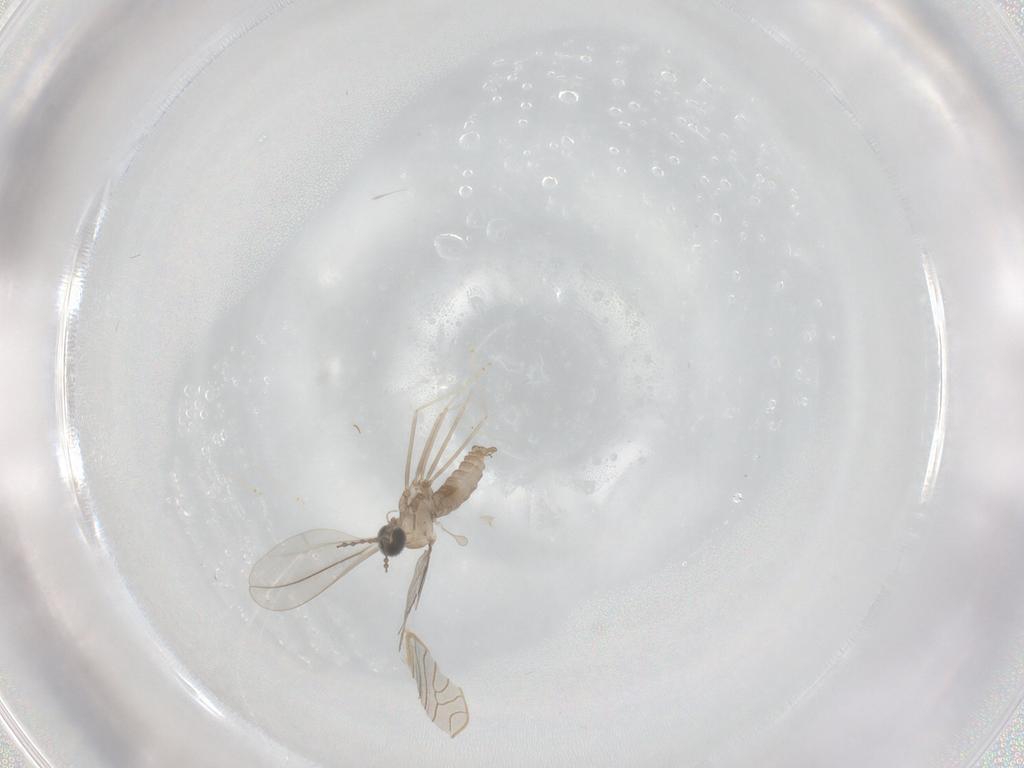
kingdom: Animalia
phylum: Arthropoda
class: Insecta
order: Diptera
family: Cecidomyiidae
